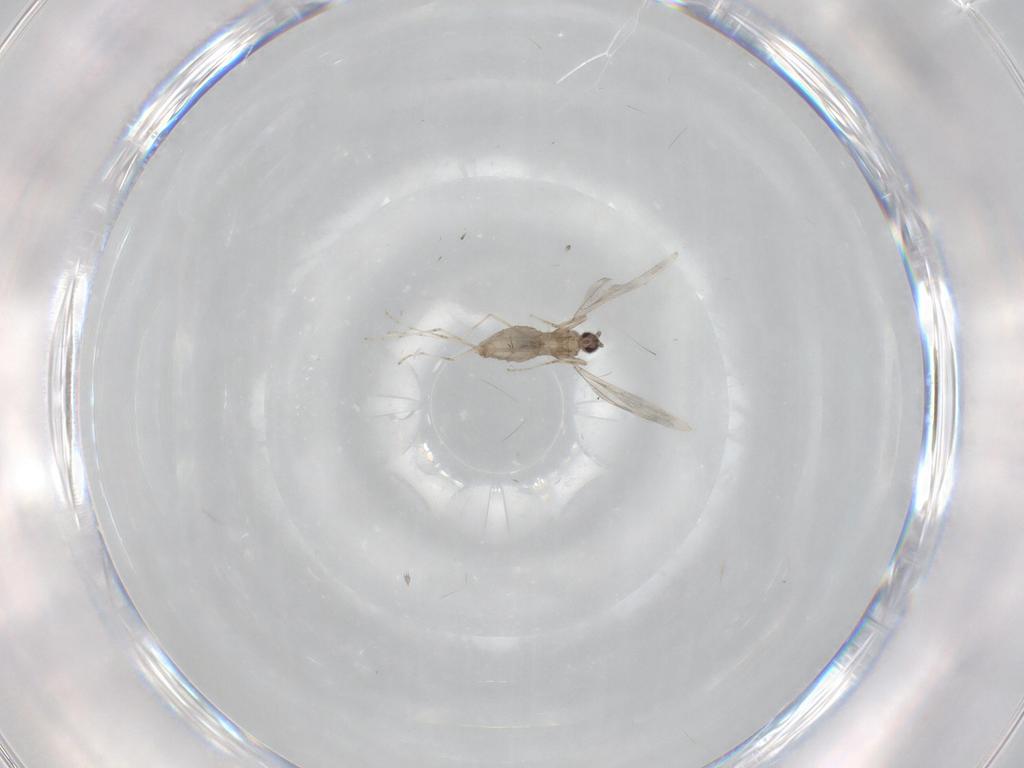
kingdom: Animalia
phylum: Arthropoda
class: Insecta
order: Diptera
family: Cecidomyiidae
